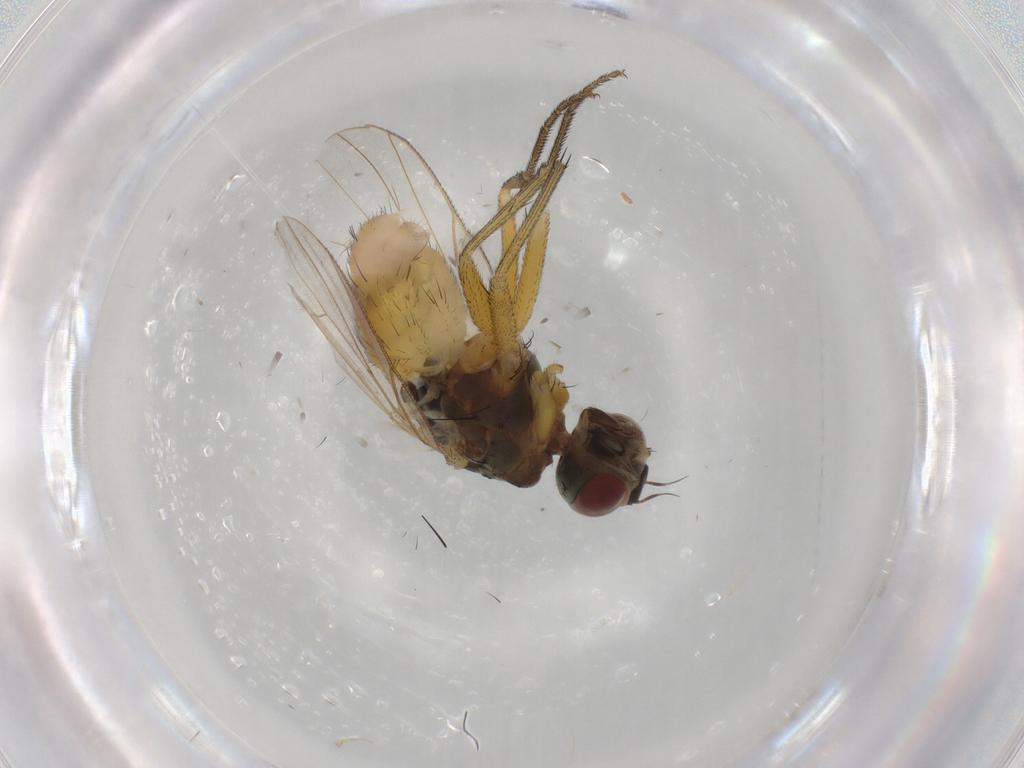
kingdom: Animalia
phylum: Arthropoda
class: Insecta
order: Diptera
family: Muscidae
